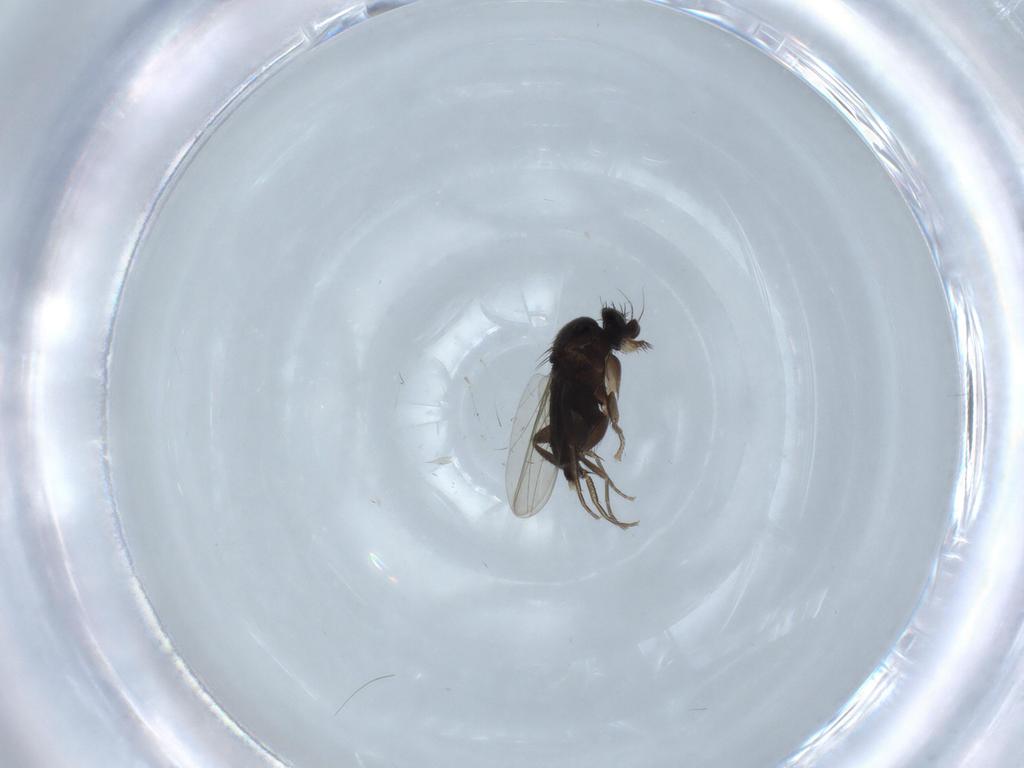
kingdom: Animalia
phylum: Arthropoda
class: Insecta
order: Diptera
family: Phoridae
